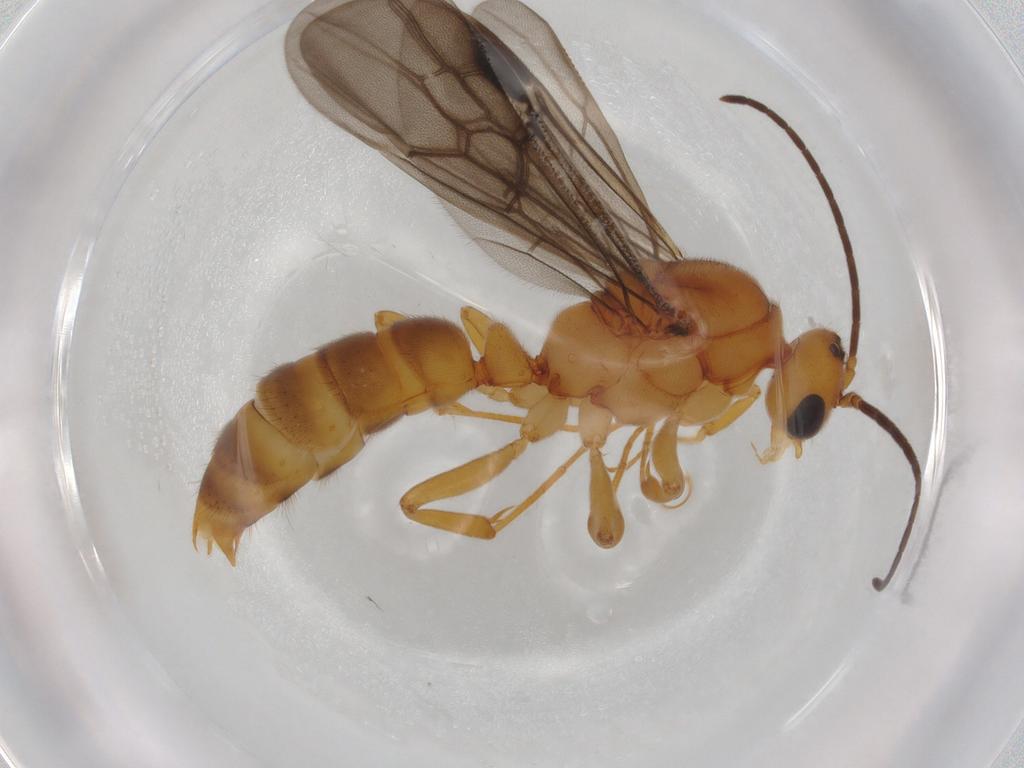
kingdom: Animalia
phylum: Arthropoda
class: Insecta
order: Hymenoptera
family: Formicidae
